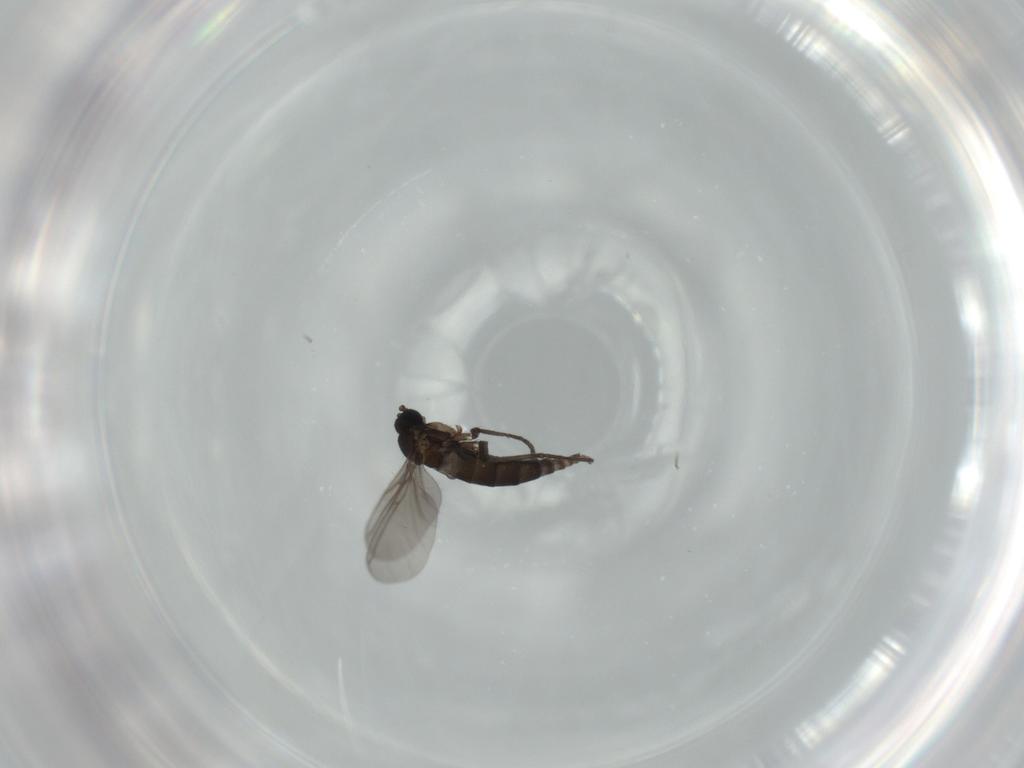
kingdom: Animalia
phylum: Arthropoda
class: Insecta
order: Diptera
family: Sciaridae
